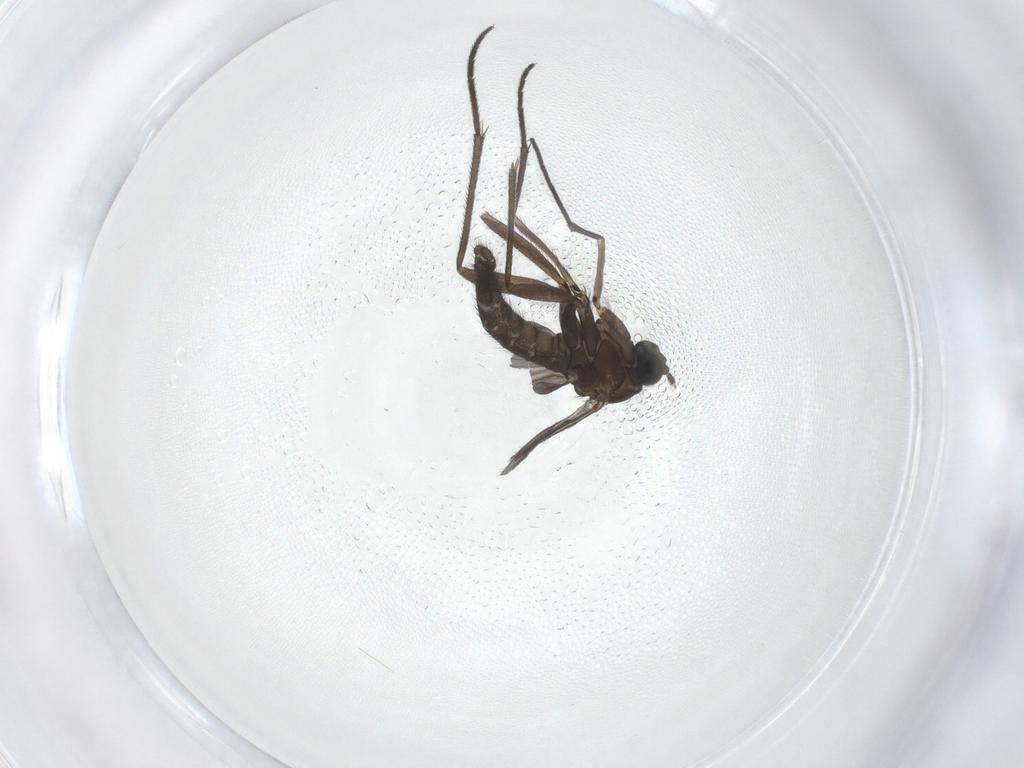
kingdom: Animalia
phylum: Arthropoda
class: Insecta
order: Diptera
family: Sciaridae
